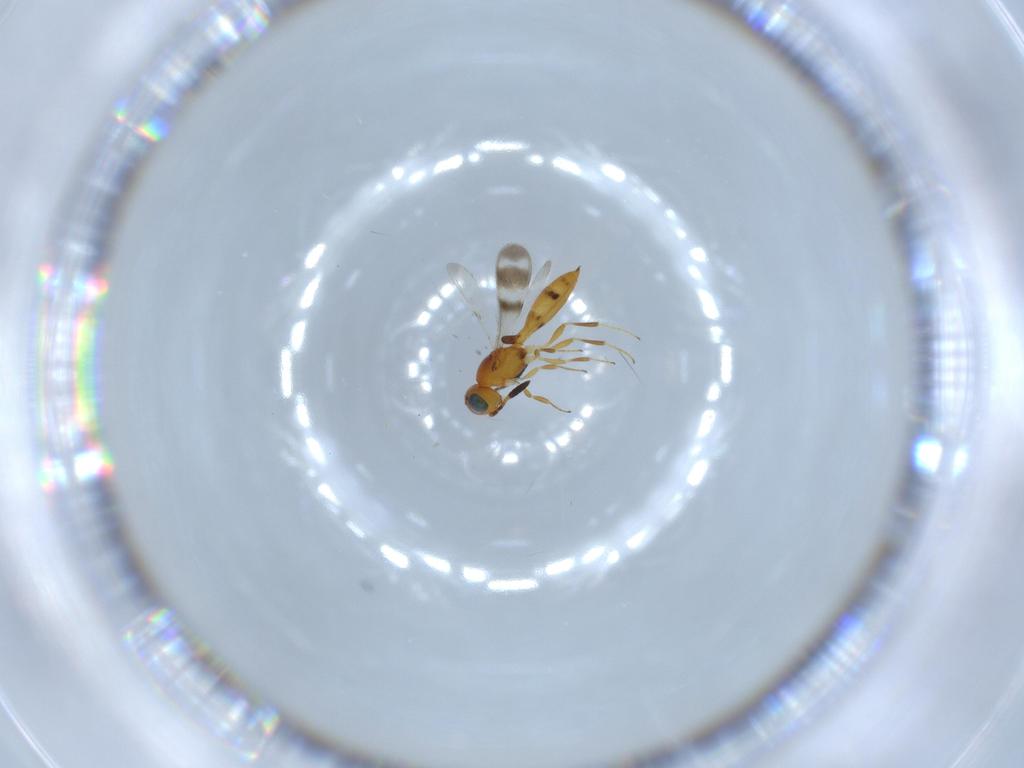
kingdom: Animalia
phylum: Arthropoda
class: Insecta
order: Hymenoptera
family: Scelionidae
